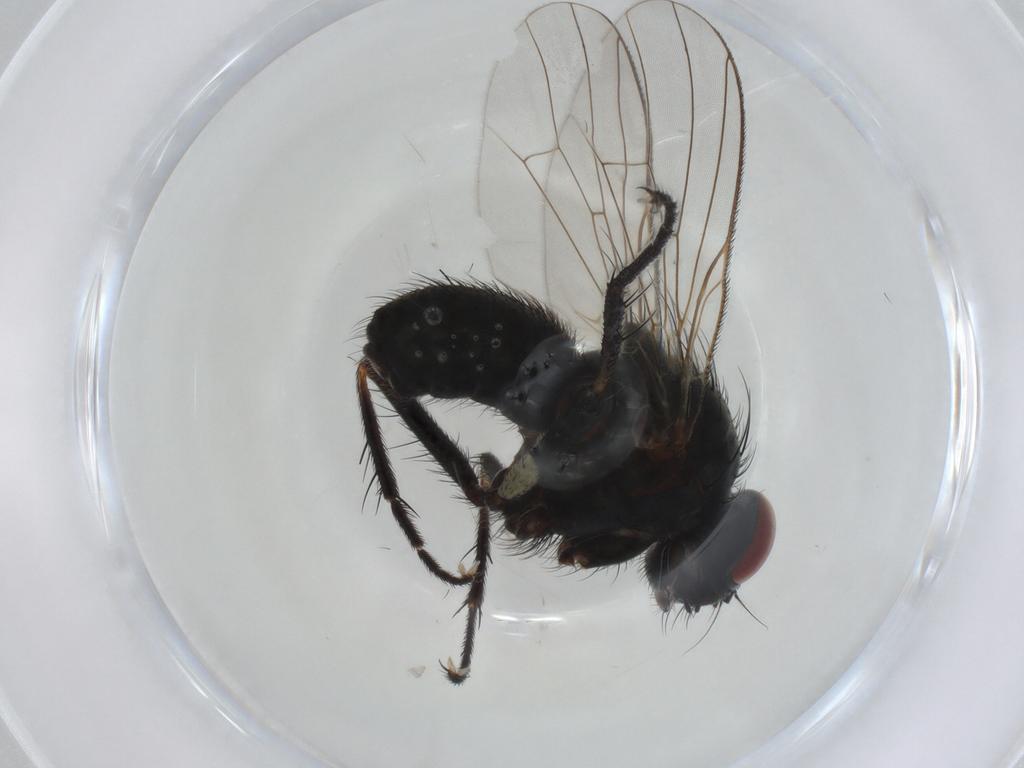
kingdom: Animalia
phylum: Arthropoda
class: Insecta
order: Diptera
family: Cecidomyiidae
